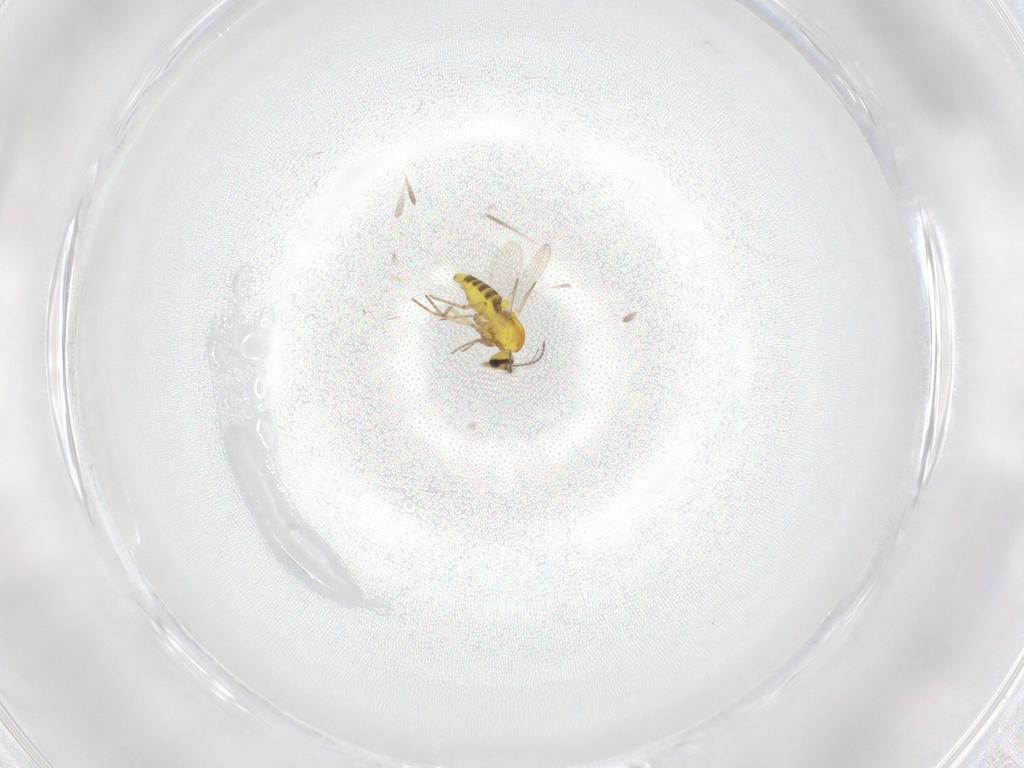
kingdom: Animalia
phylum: Arthropoda
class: Insecta
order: Diptera
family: Ceratopogonidae
